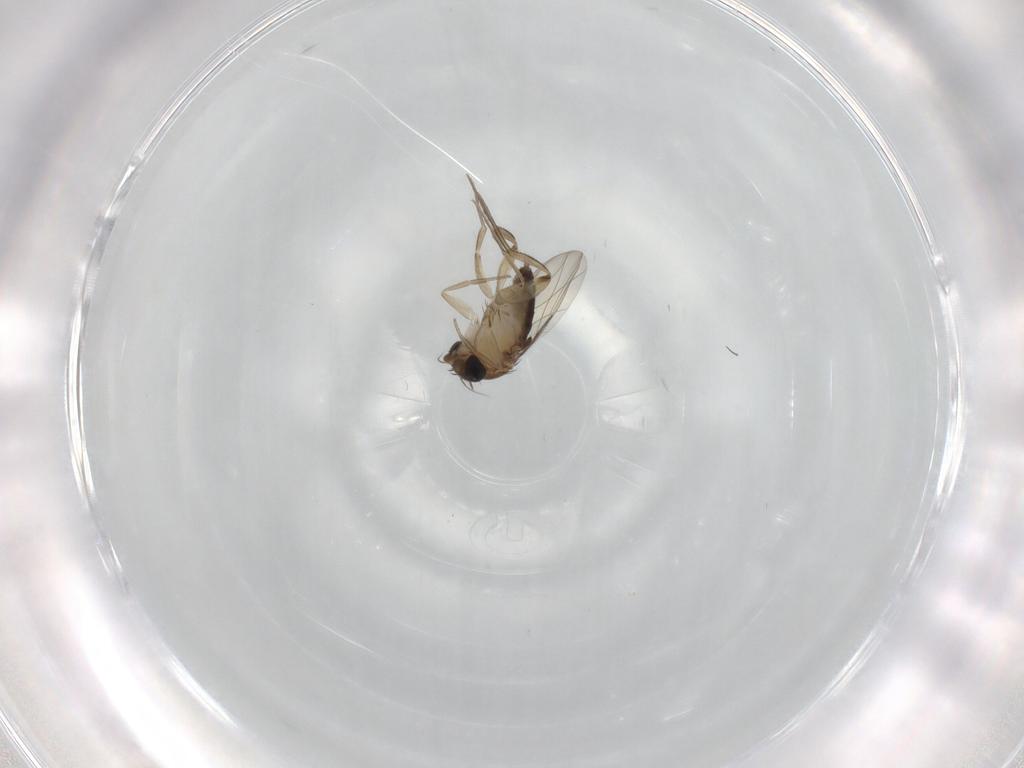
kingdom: Animalia
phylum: Arthropoda
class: Insecta
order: Diptera
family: Phoridae
